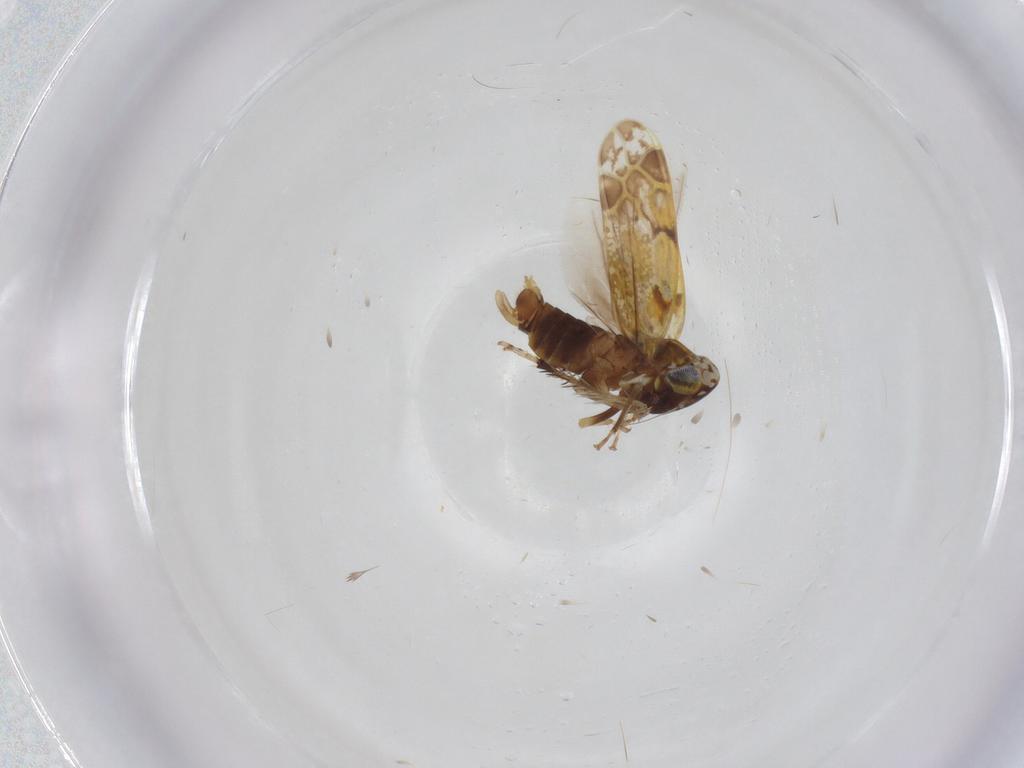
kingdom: Animalia
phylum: Arthropoda
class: Insecta
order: Hemiptera
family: Cicadellidae
